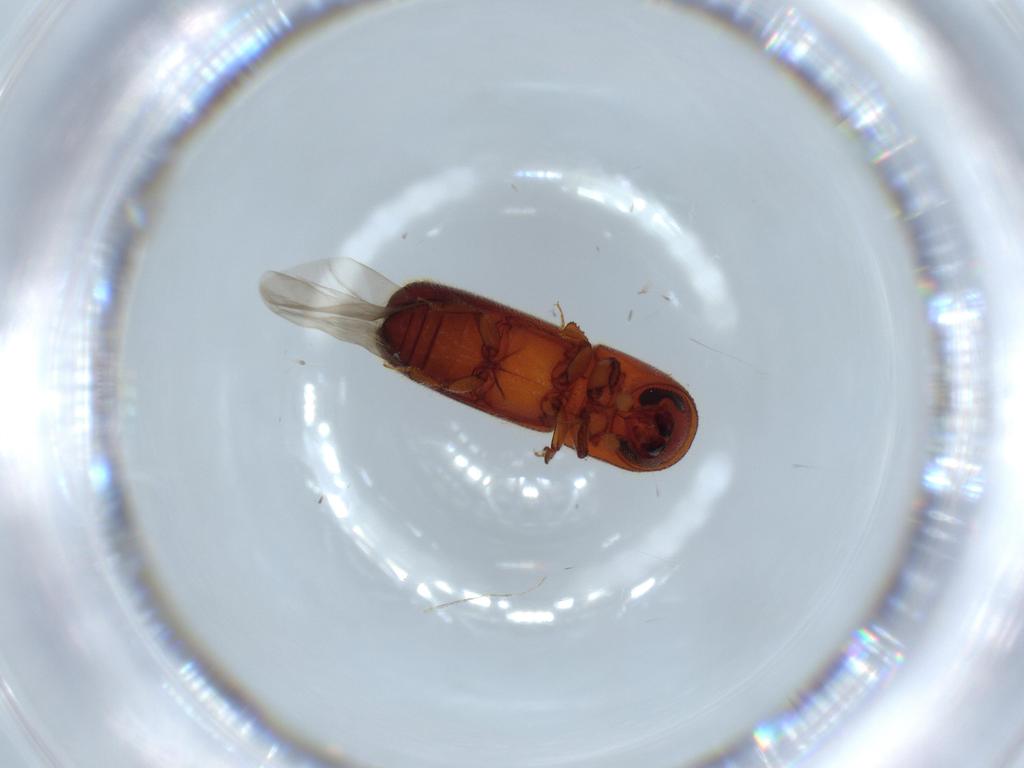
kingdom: Animalia
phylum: Arthropoda
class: Insecta
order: Coleoptera
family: Curculionidae
